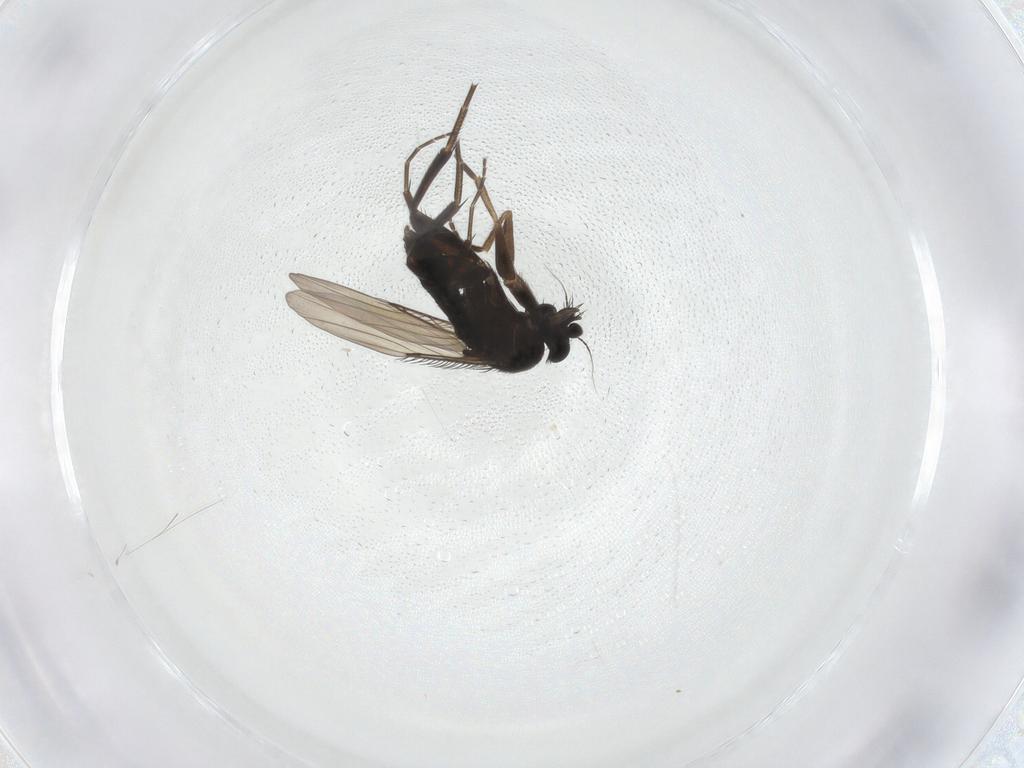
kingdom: Animalia
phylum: Arthropoda
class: Insecta
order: Diptera
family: Phoridae
